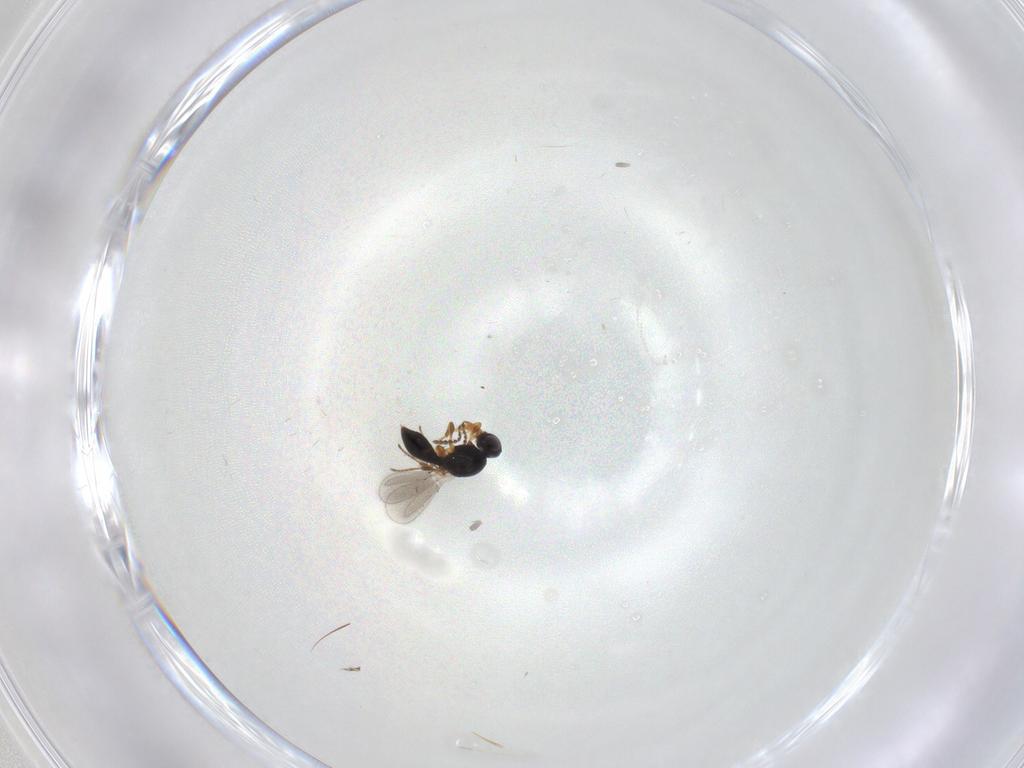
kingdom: Animalia
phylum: Arthropoda
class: Insecta
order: Hymenoptera
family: Platygastridae
